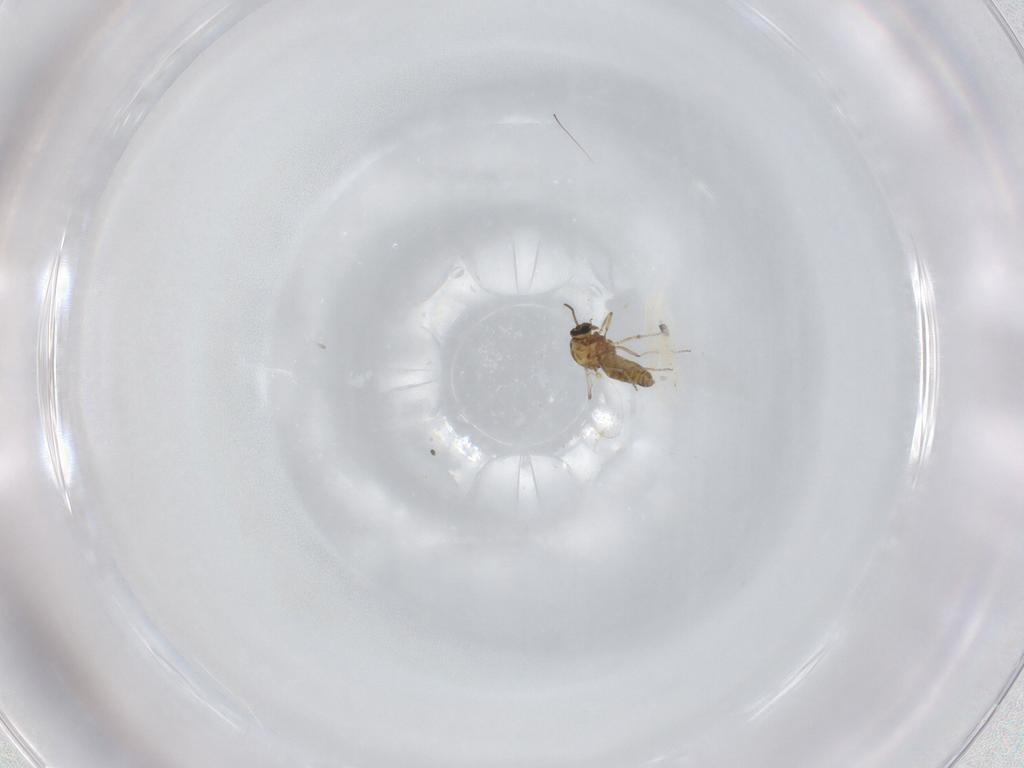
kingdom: Animalia
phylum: Arthropoda
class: Insecta
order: Diptera
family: Ceratopogonidae
